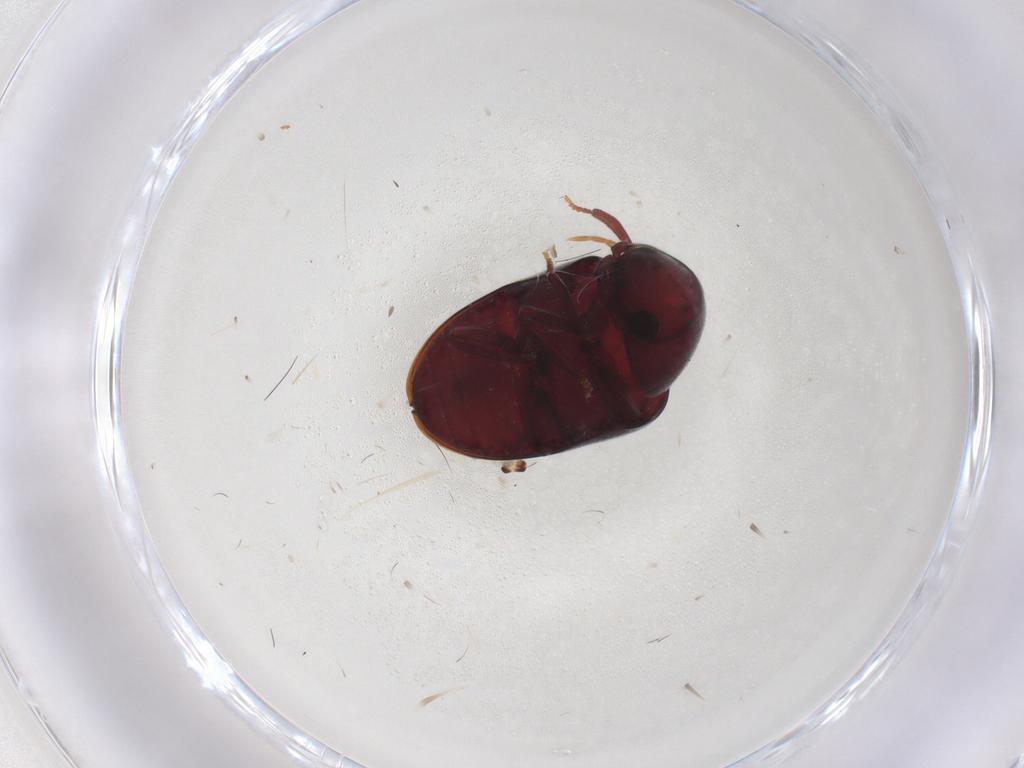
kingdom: Animalia
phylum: Arthropoda
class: Insecta
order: Coleoptera
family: Anobiidae
